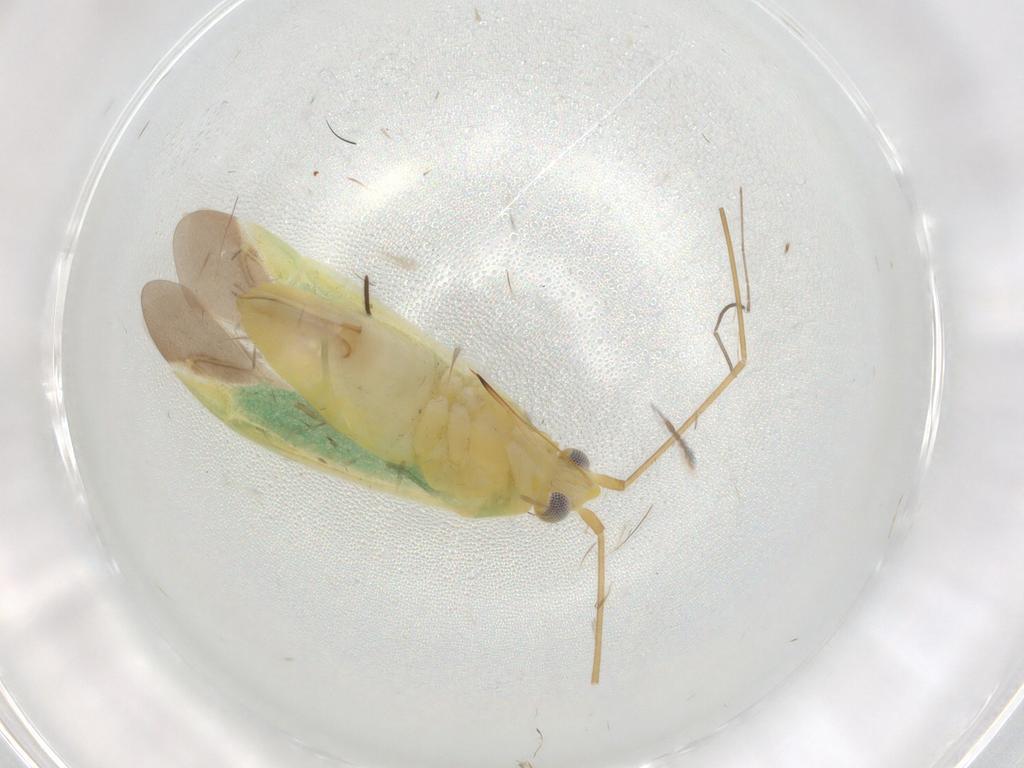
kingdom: Animalia
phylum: Arthropoda
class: Insecta
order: Hemiptera
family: Miridae
